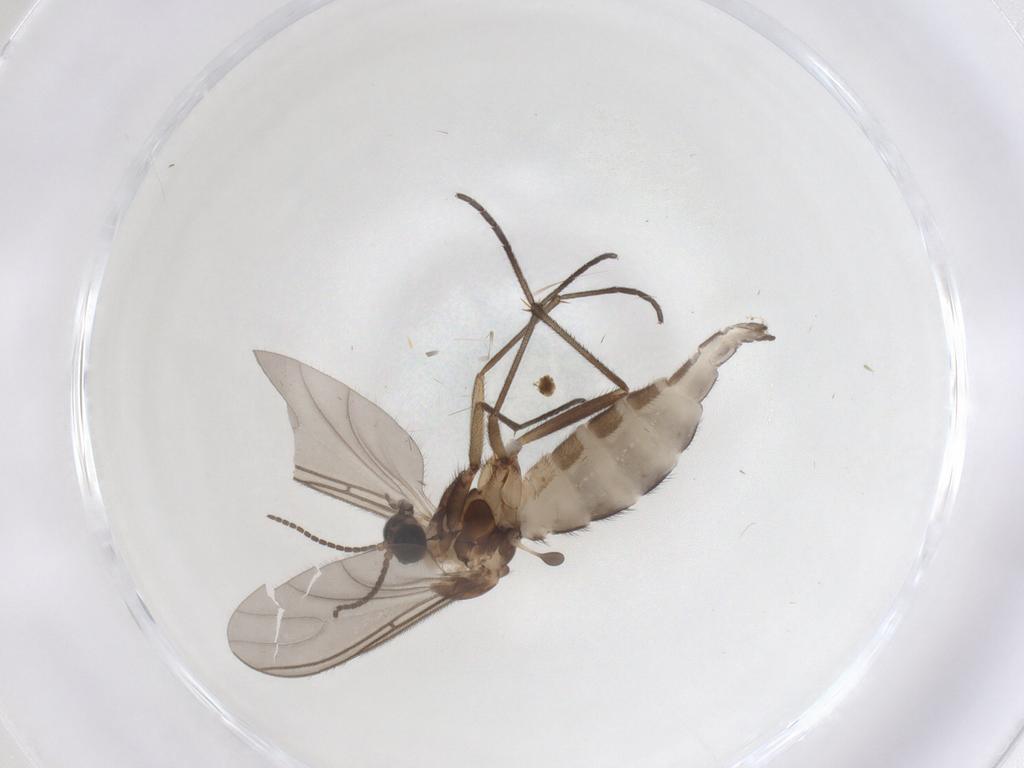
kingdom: Animalia
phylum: Arthropoda
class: Insecta
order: Diptera
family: Sciaridae
